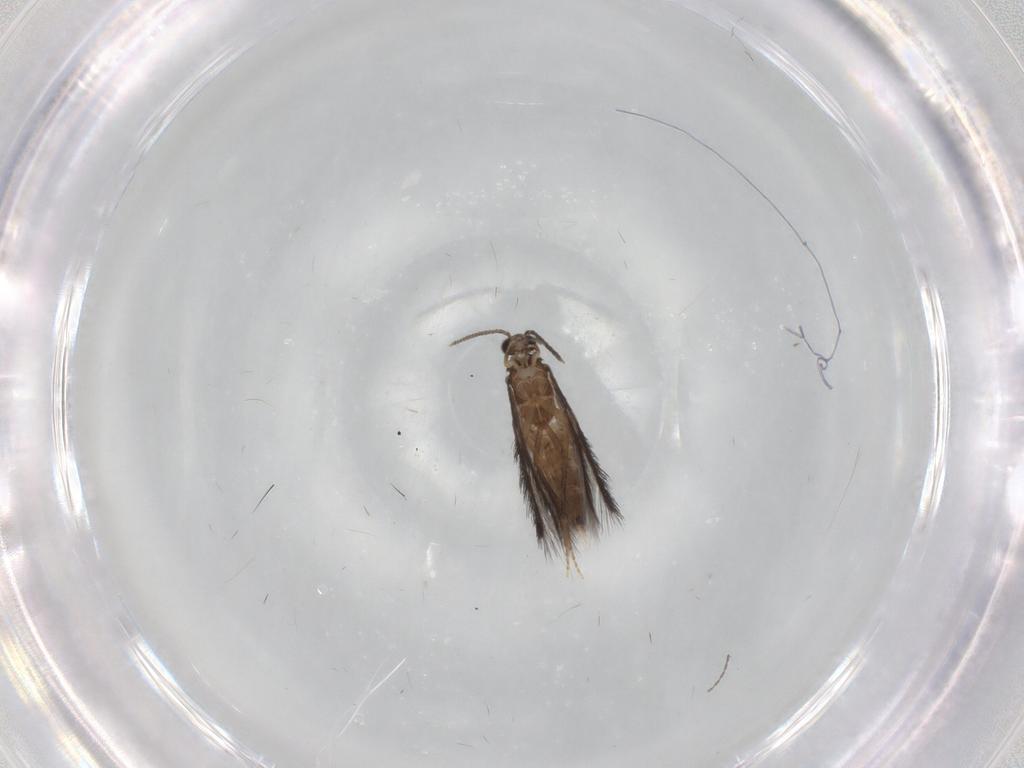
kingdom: Animalia
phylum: Arthropoda
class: Insecta
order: Trichoptera
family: Hydroptilidae
